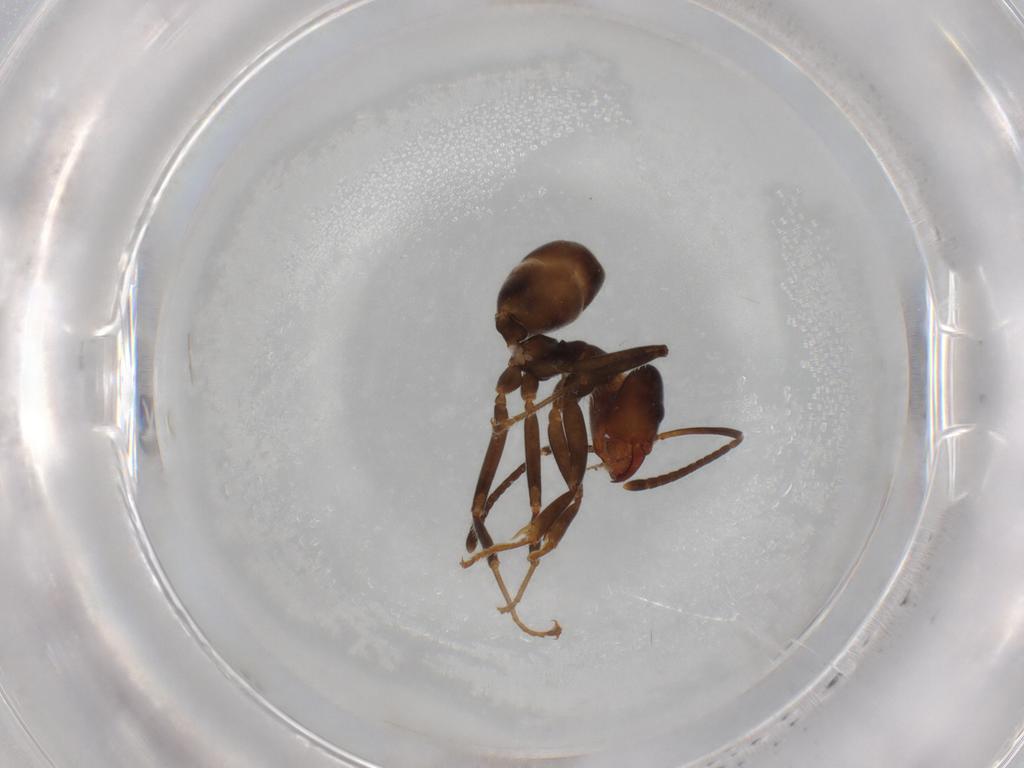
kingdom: Animalia
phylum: Arthropoda
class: Insecta
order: Hymenoptera
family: Formicidae
